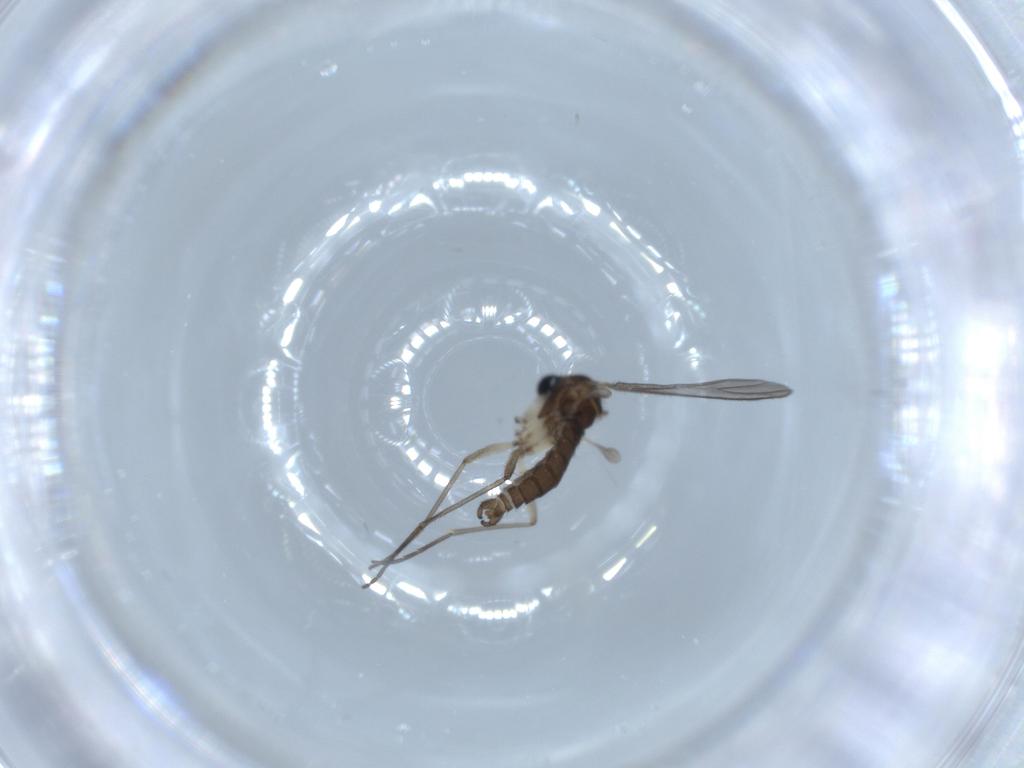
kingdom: Animalia
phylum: Arthropoda
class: Insecta
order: Diptera
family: Sciaridae
